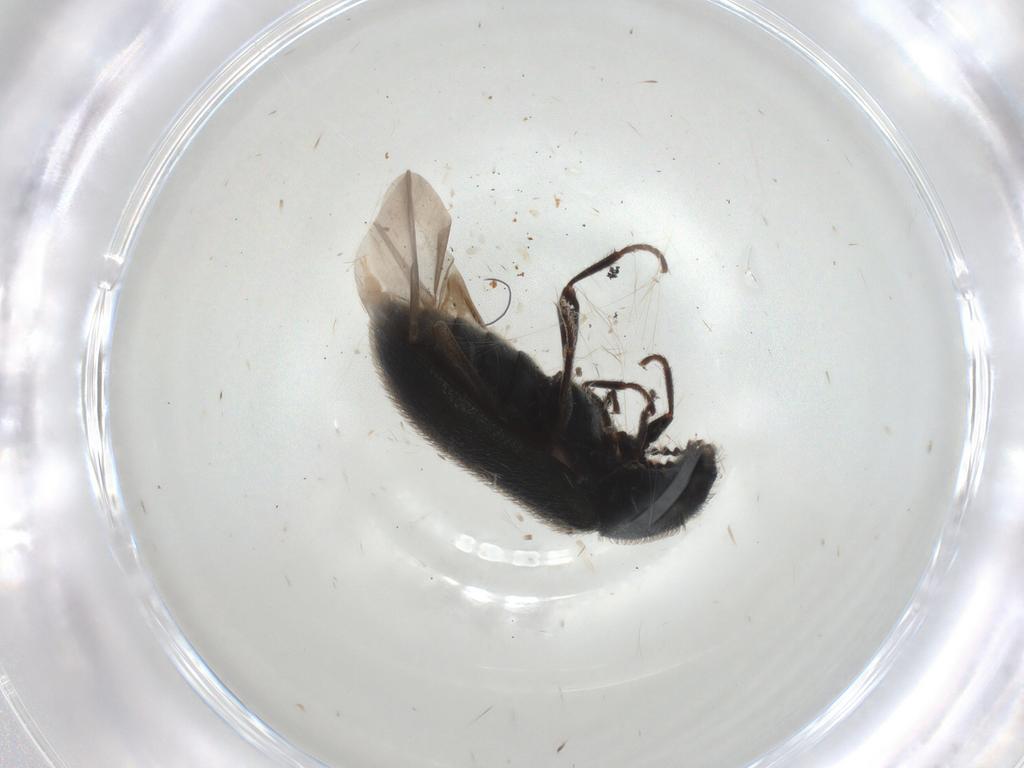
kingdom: Animalia
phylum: Arthropoda
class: Insecta
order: Coleoptera
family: Melyridae
